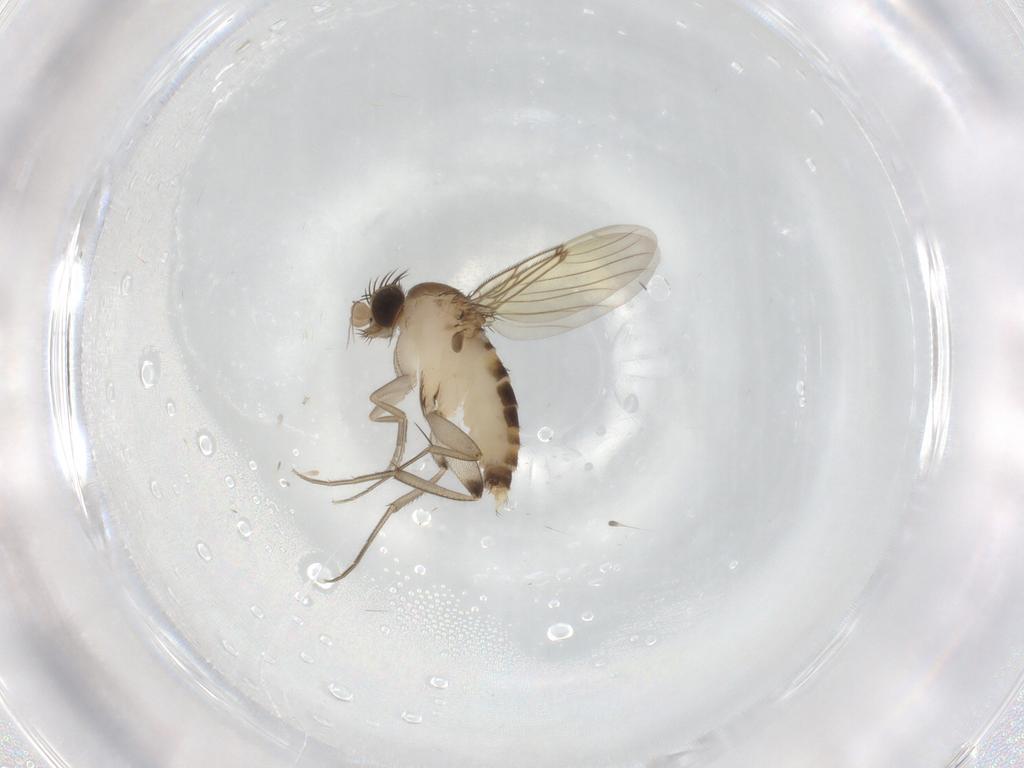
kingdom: Animalia
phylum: Arthropoda
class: Insecta
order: Diptera
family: Phoridae
